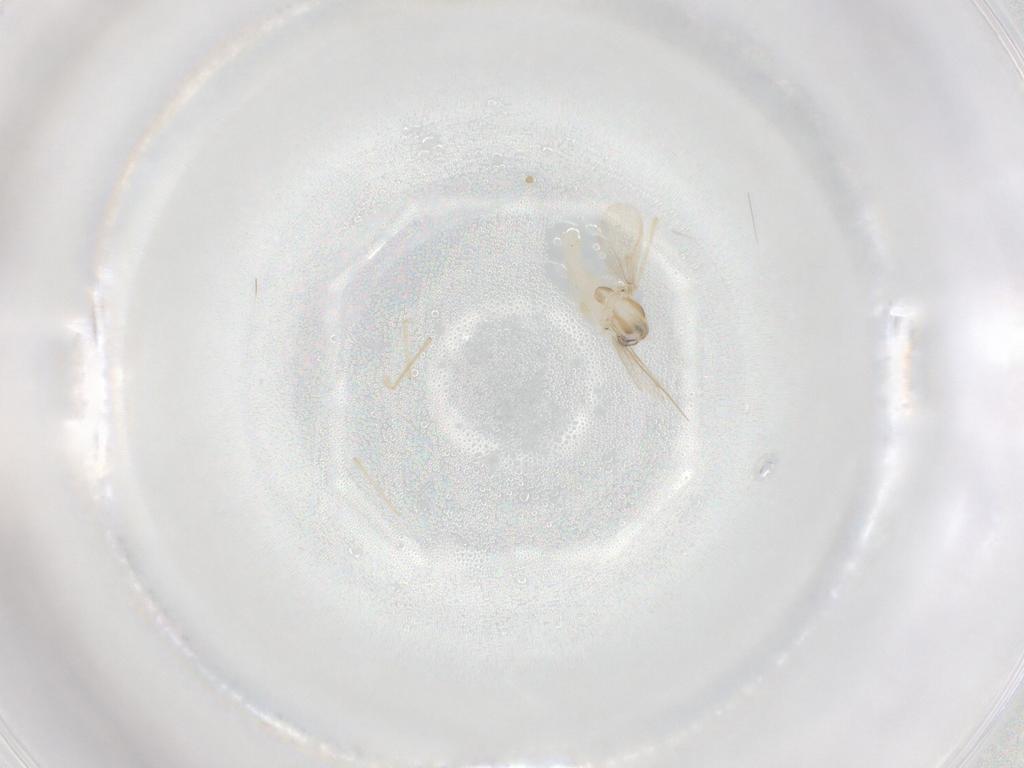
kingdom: Animalia
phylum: Arthropoda
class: Insecta
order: Diptera
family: Chironomidae
